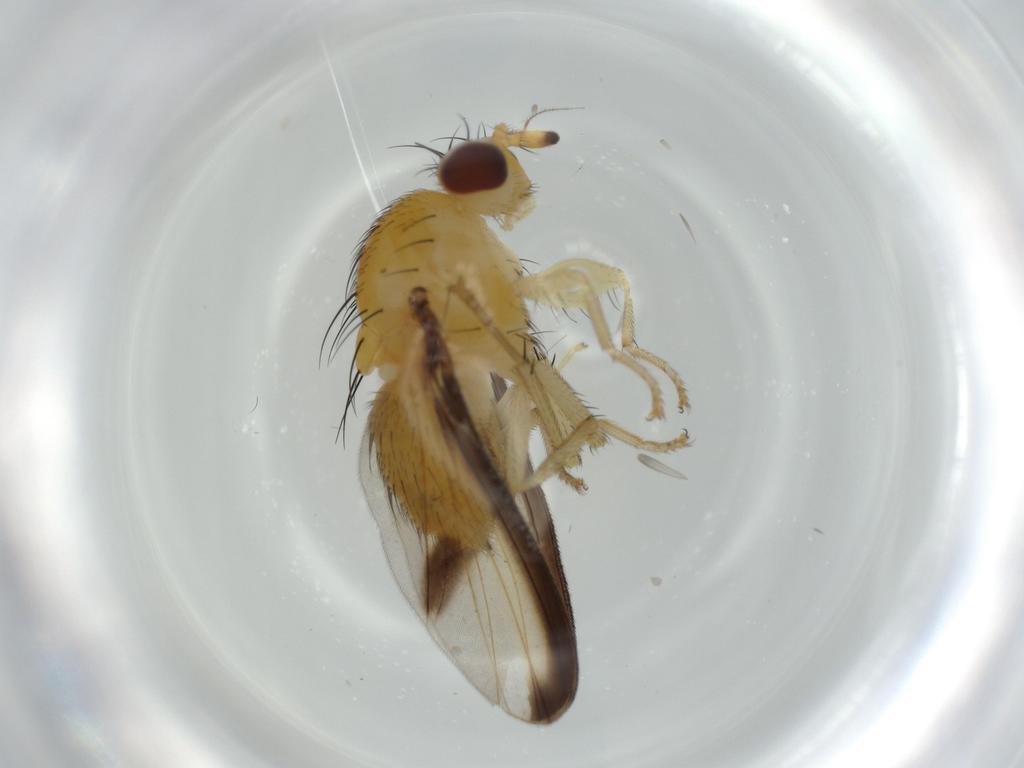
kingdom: Animalia
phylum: Arthropoda
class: Insecta
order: Diptera
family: Lauxaniidae
